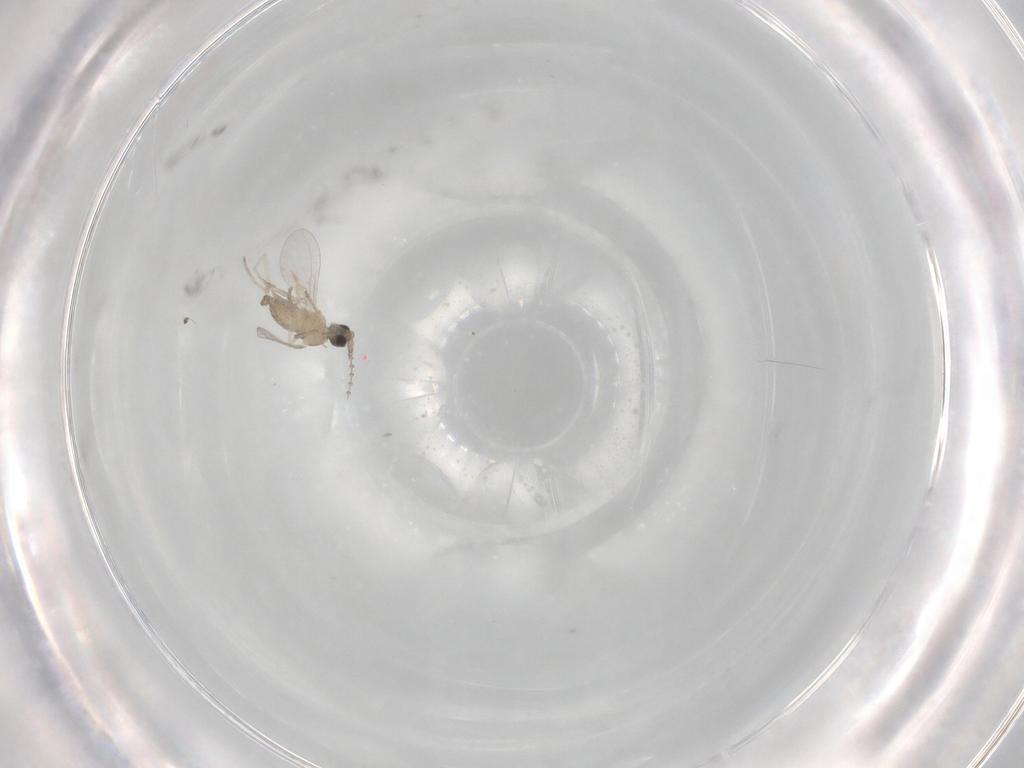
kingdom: Animalia
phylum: Arthropoda
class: Insecta
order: Diptera
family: Cecidomyiidae
